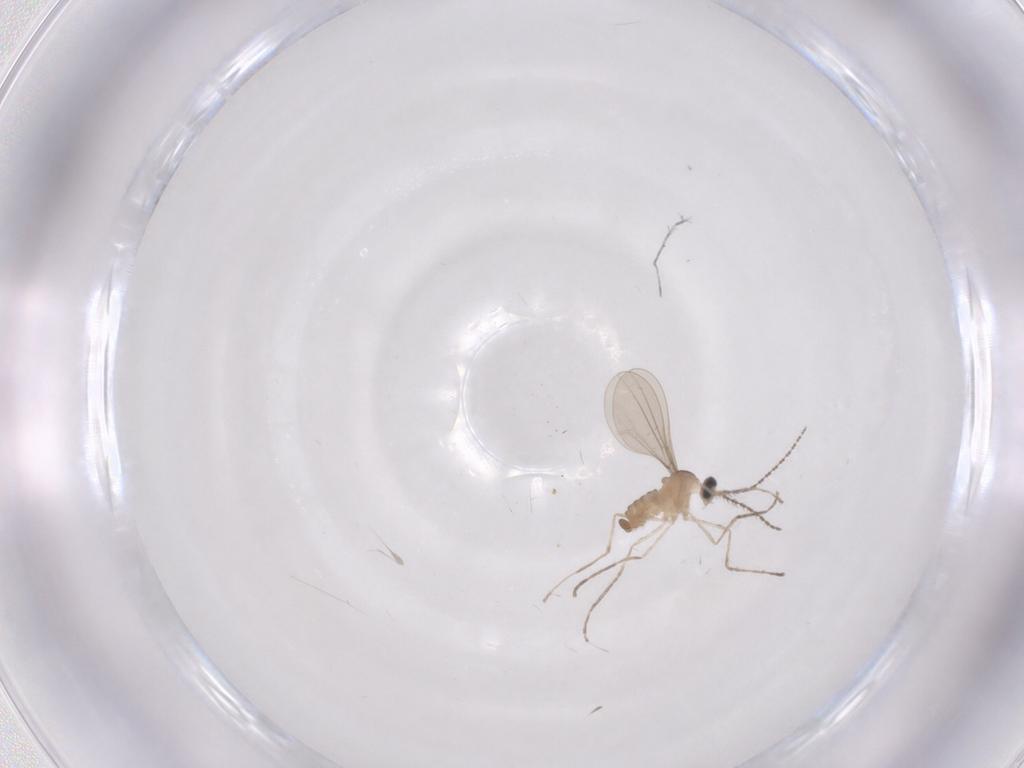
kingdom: Animalia
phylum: Arthropoda
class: Insecta
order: Diptera
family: Cecidomyiidae
